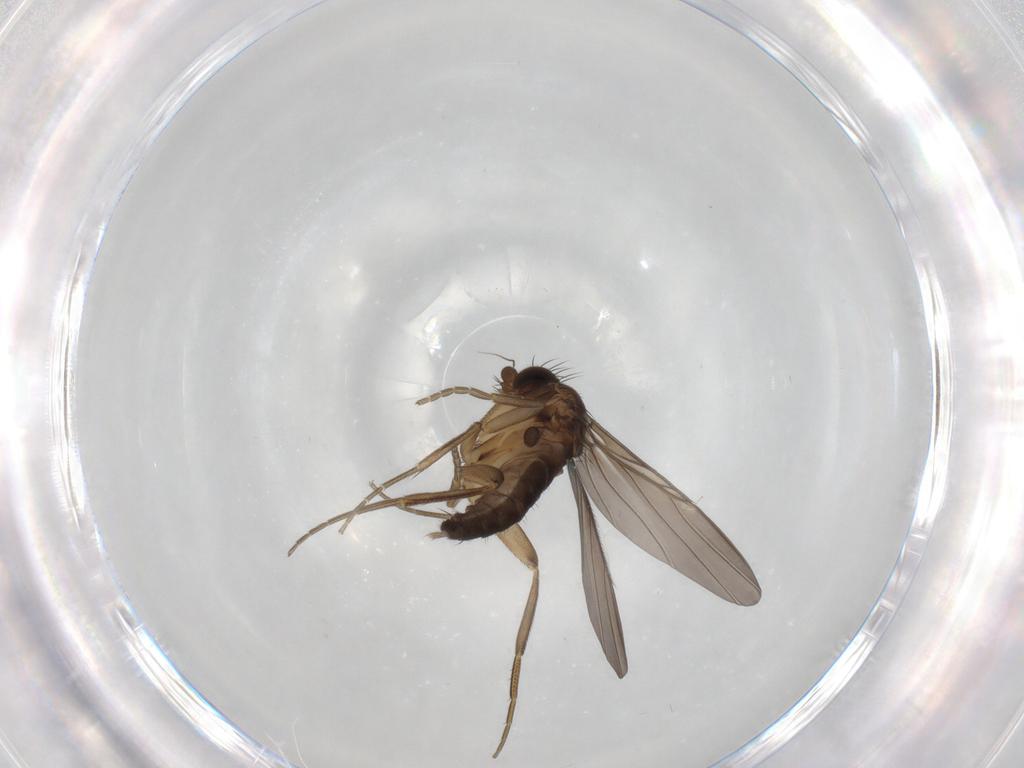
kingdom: Animalia
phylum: Arthropoda
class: Insecta
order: Diptera
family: Phoridae
